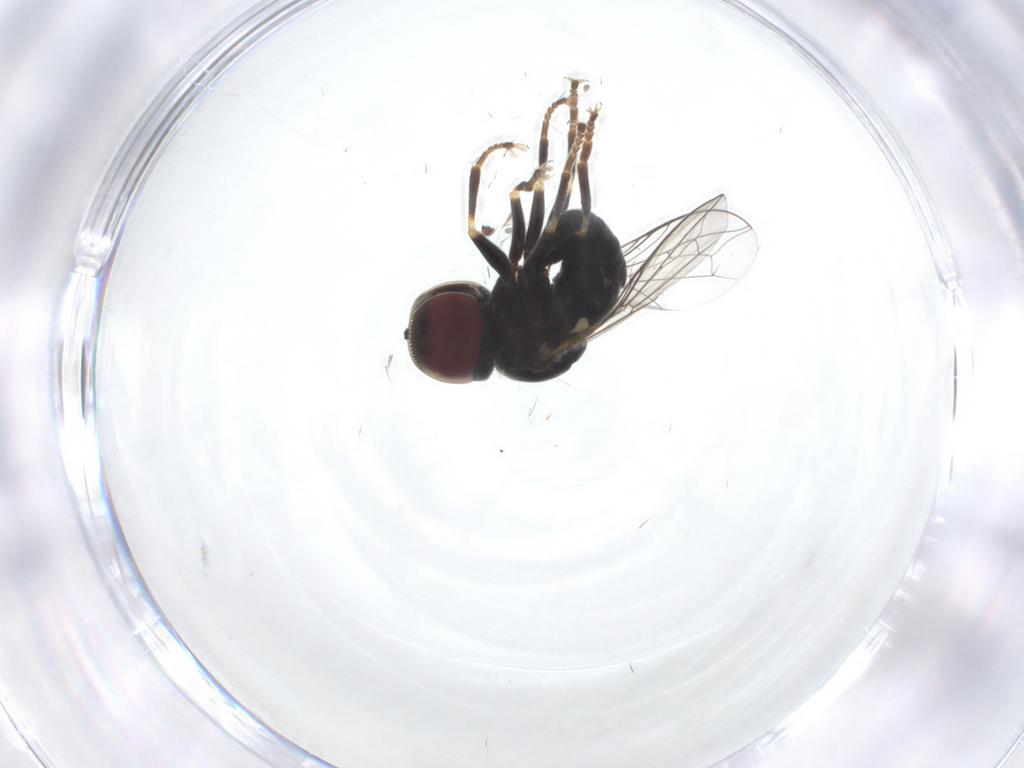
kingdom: Animalia
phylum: Arthropoda
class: Insecta
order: Diptera
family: Pipunculidae
